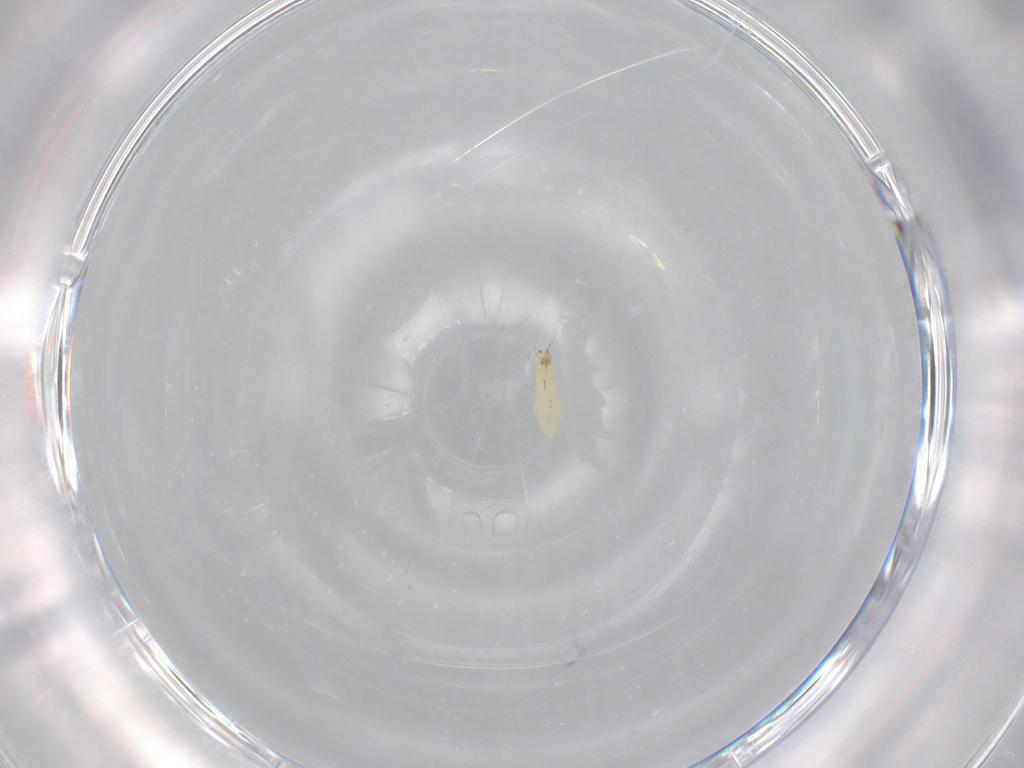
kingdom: Animalia
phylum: Arthropoda
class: Insecta
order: Thysanoptera
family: Thripidae
